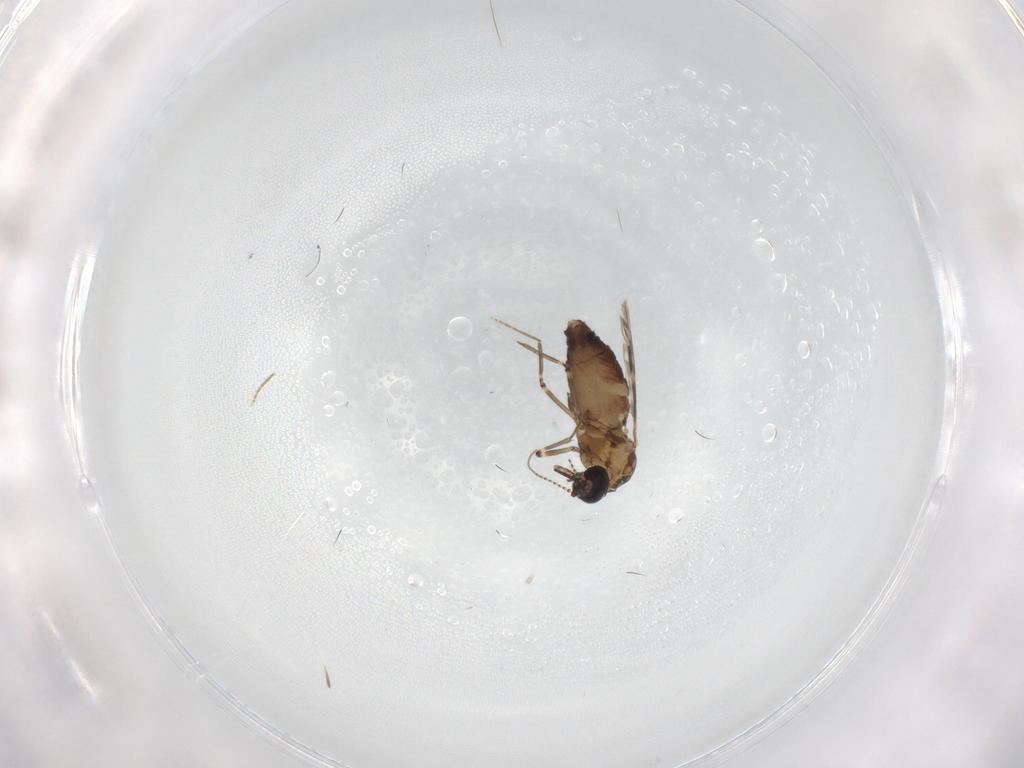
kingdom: Animalia
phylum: Arthropoda
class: Insecta
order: Diptera
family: Ceratopogonidae
